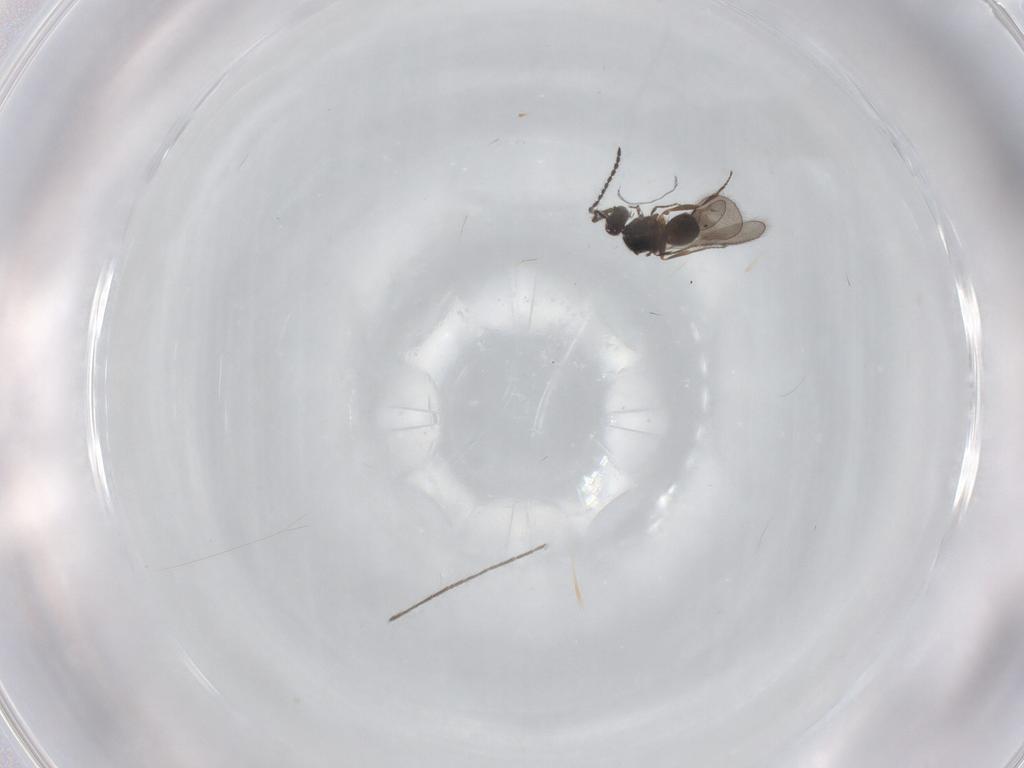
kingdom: Animalia
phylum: Arthropoda
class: Insecta
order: Hymenoptera
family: Ceraphronidae
